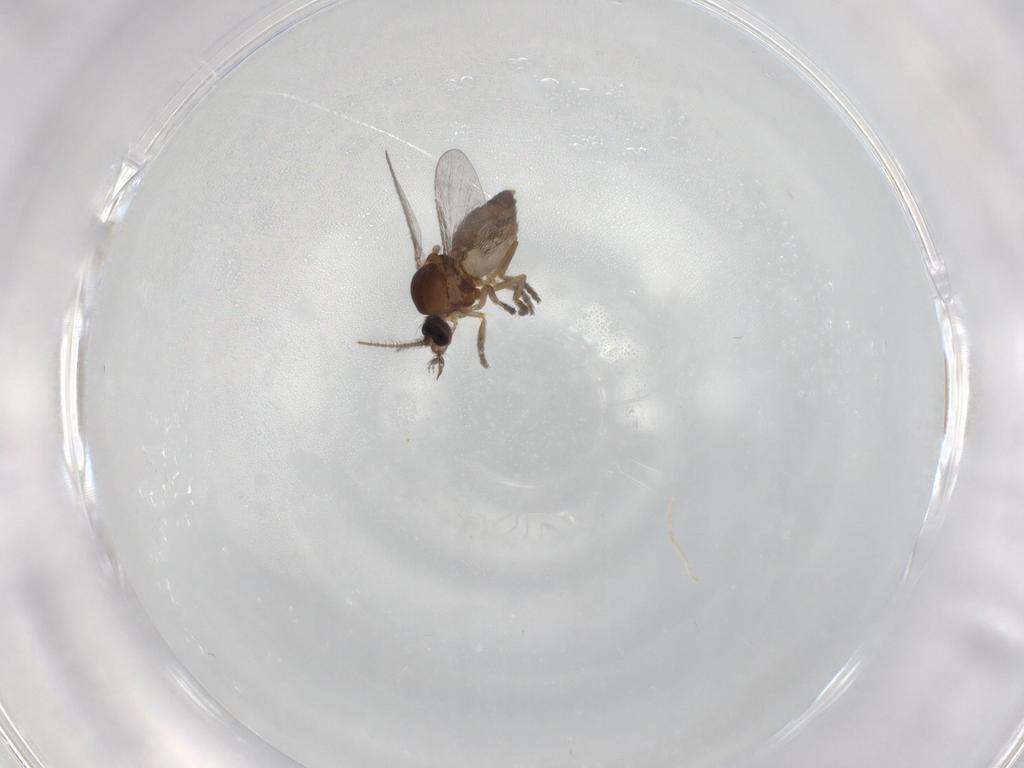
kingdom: Animalia
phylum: Arthropoda
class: Insecta
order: Diptera
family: Ceratopogonidae
